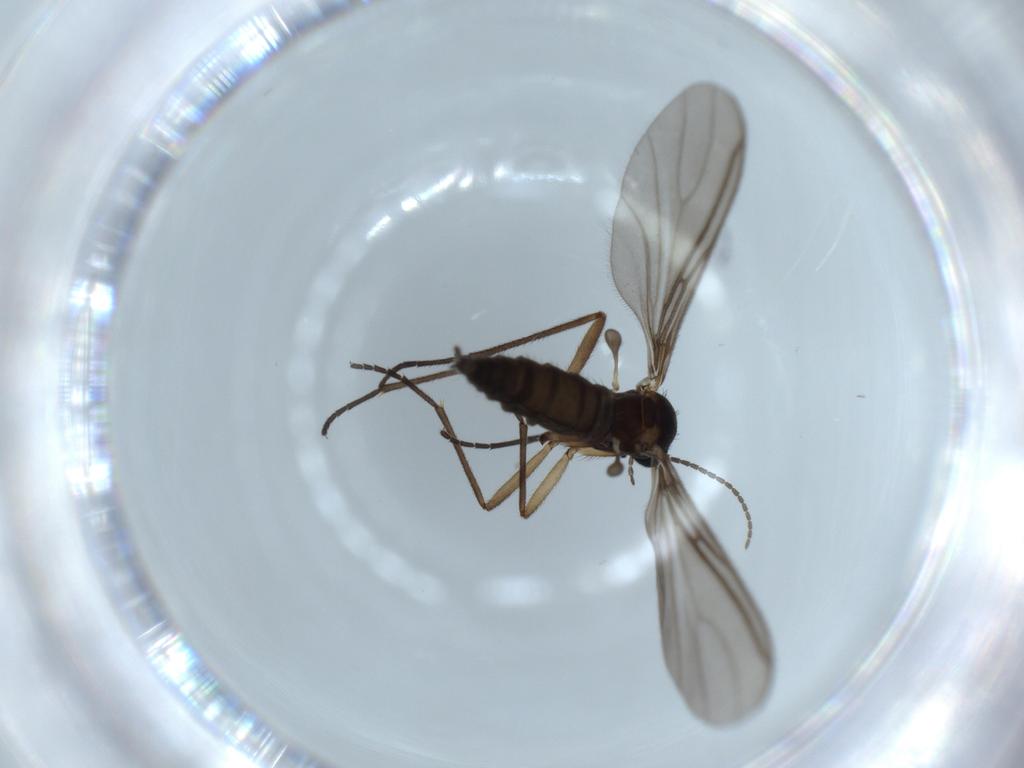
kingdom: Animalia
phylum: Arthropoda
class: Insecta
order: Diptera
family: Sciaridae
